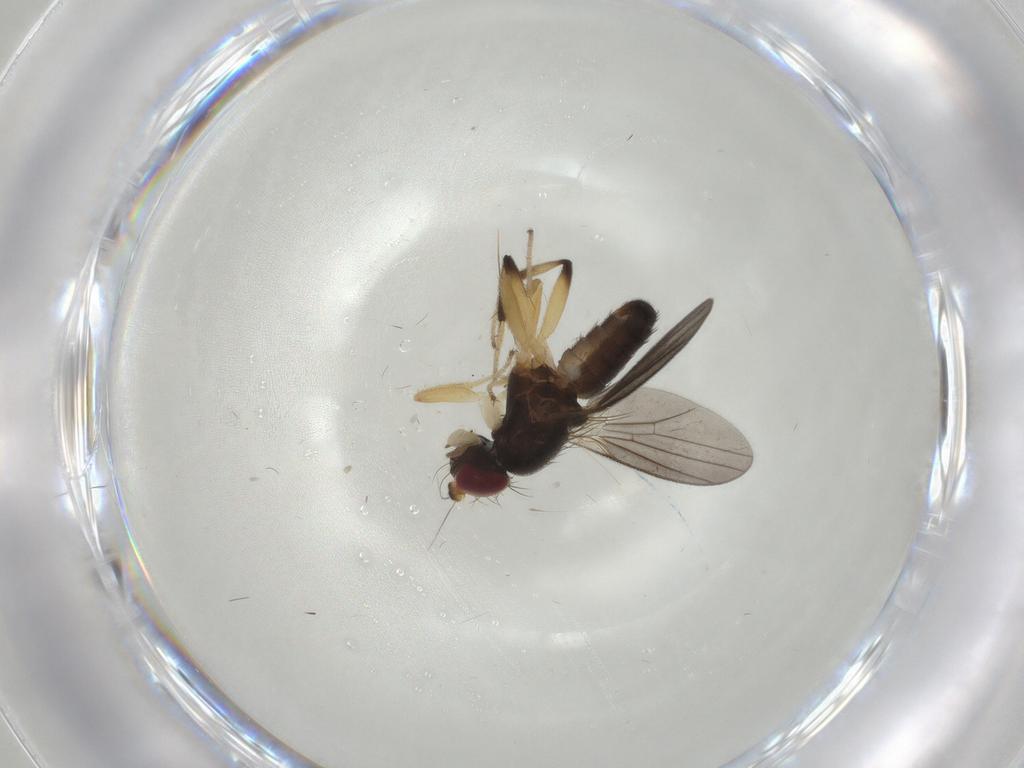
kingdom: Animalia
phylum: Arthropoda
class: Insecta
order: Diptera
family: Clusiidae
